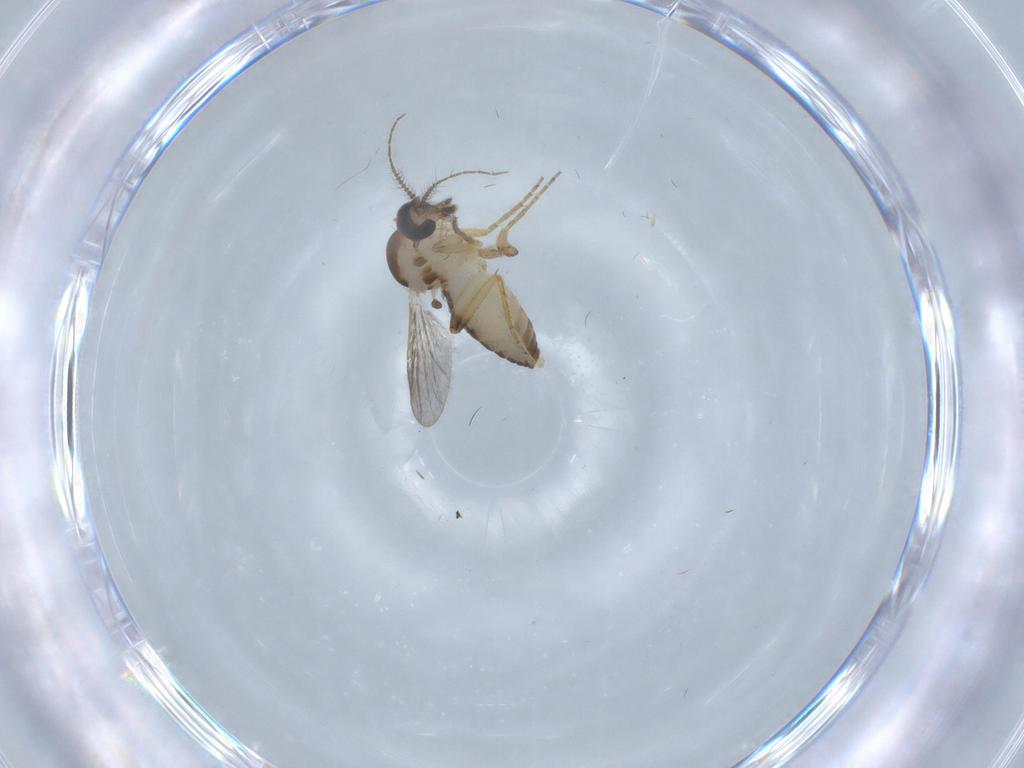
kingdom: Animalia
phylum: Arthropoda
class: Insecta
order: Diptera
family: Ceratopogonidae
